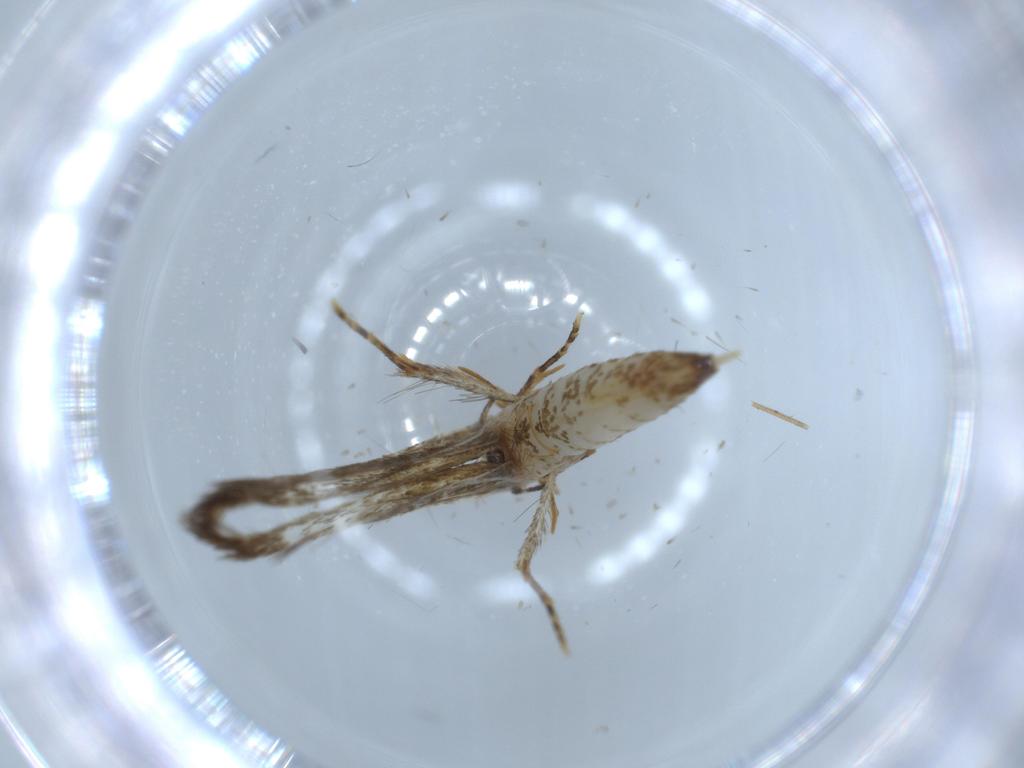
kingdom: Animalia
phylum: Arthropoda
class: Insecta
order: Lepidoptera
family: Tineidae
